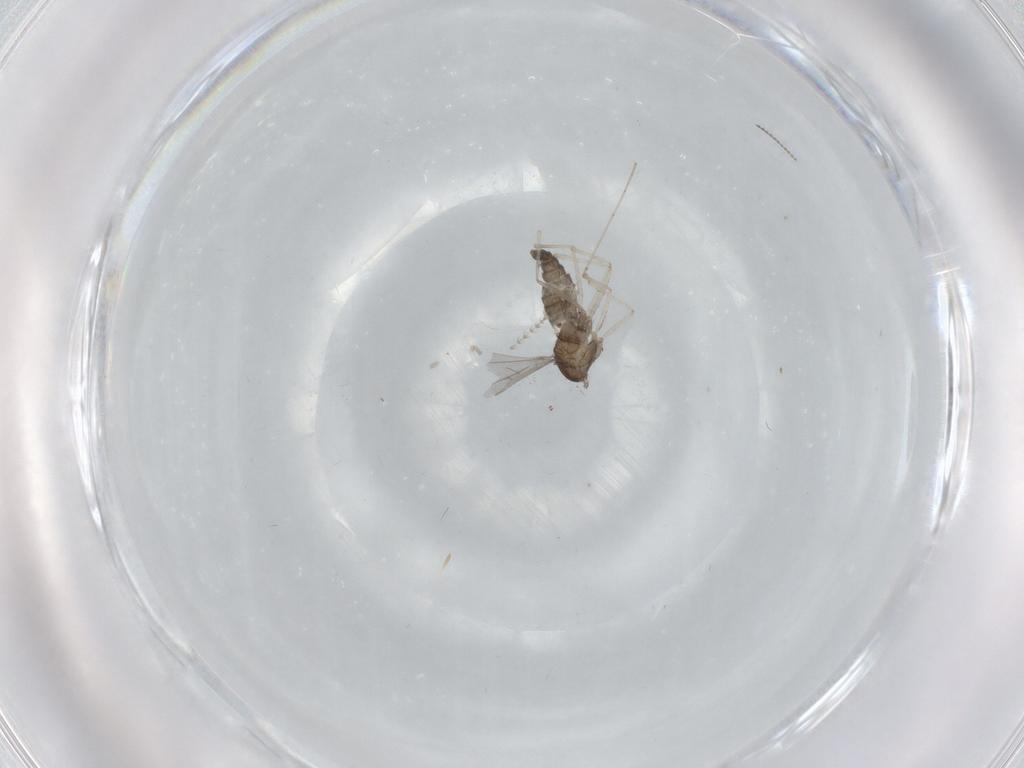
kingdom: Animalia
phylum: Arthropoda
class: Insecta
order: Diptera
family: Cecidomyiidae
